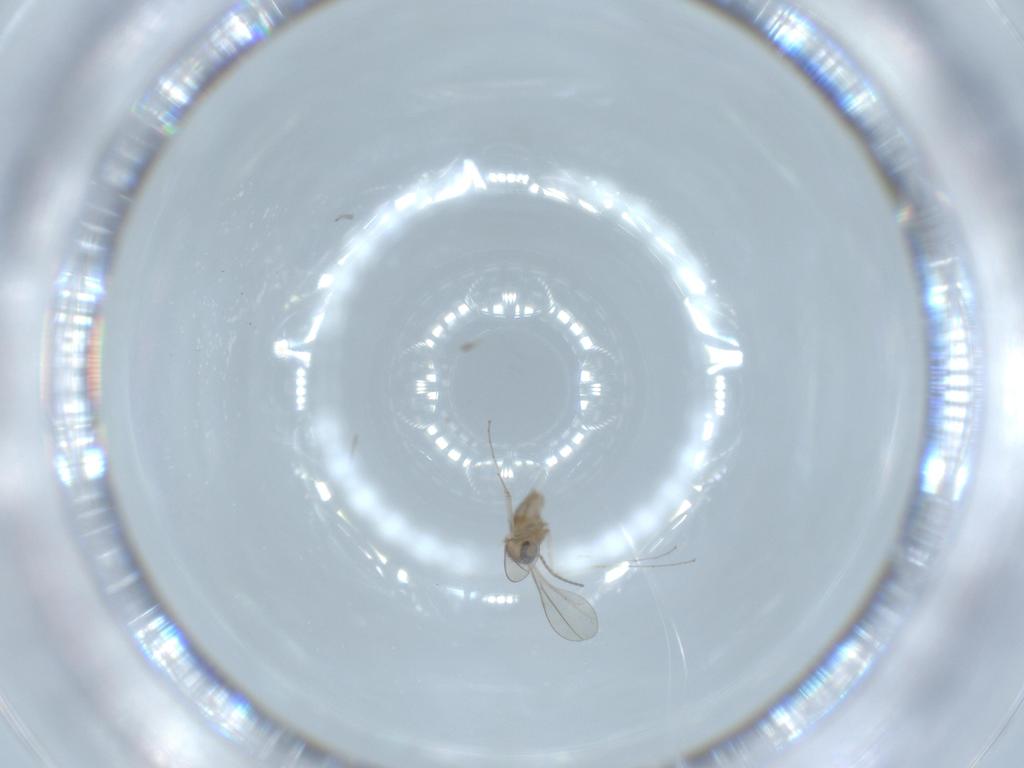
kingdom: Animalia
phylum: Arthropoda
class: Insecta
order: Diptera
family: Cecidomyiidae
